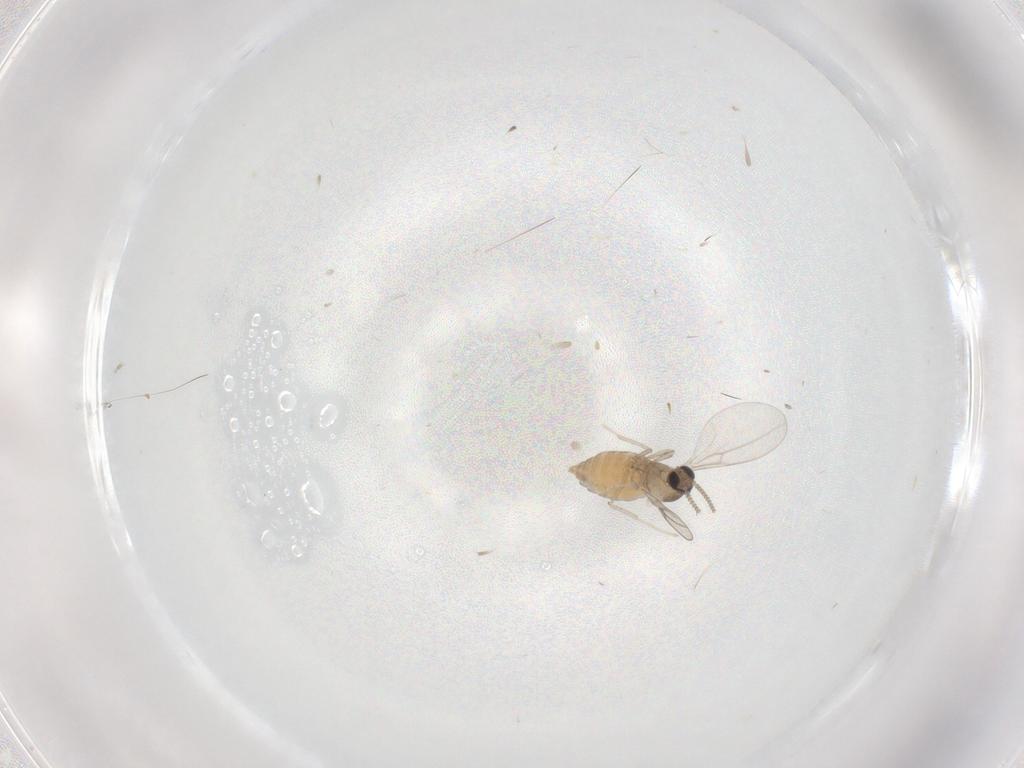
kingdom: Animalia
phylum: Arthropoda
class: Insecta
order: Diptera
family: Cecidomyiidae
